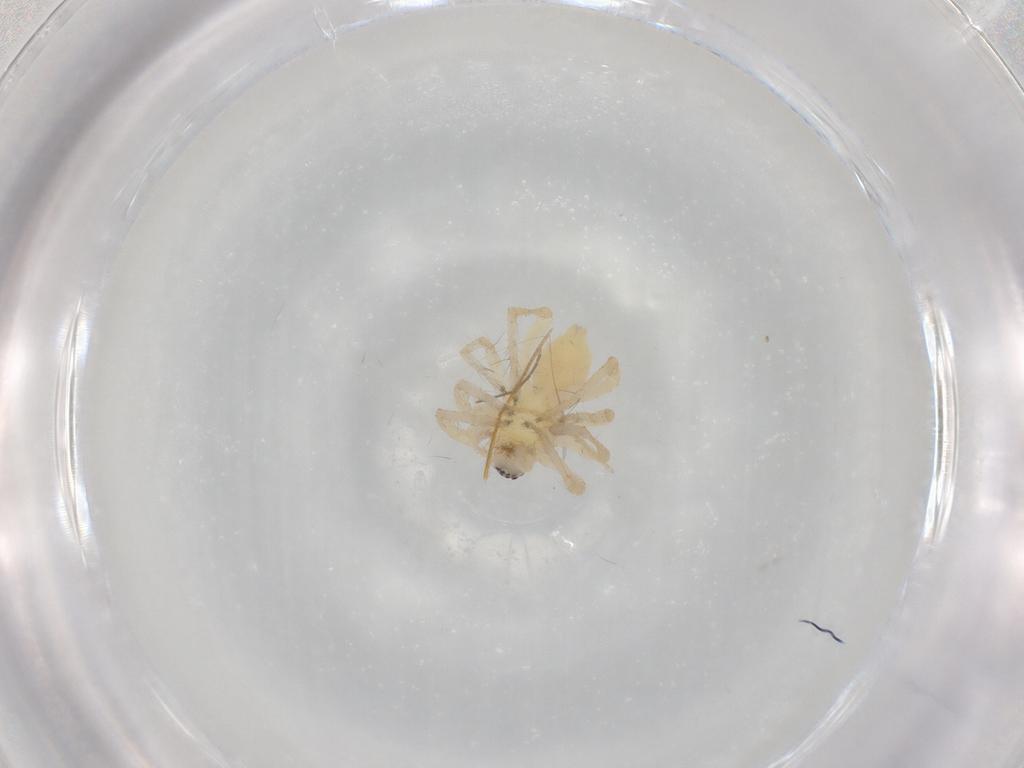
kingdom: Animalia
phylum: Arthropoda
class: Arachnida
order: Araneae
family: Anyphaenidae
